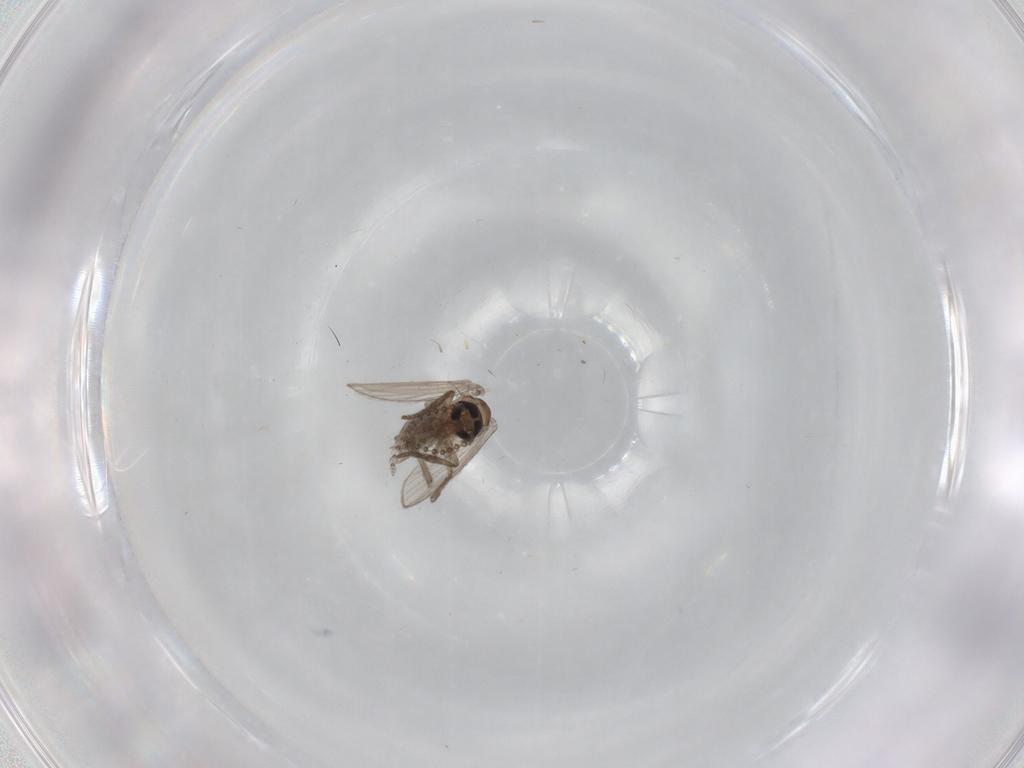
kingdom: Animalia
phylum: Arthropoda
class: Insecta
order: Diptera
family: Psychodidae
